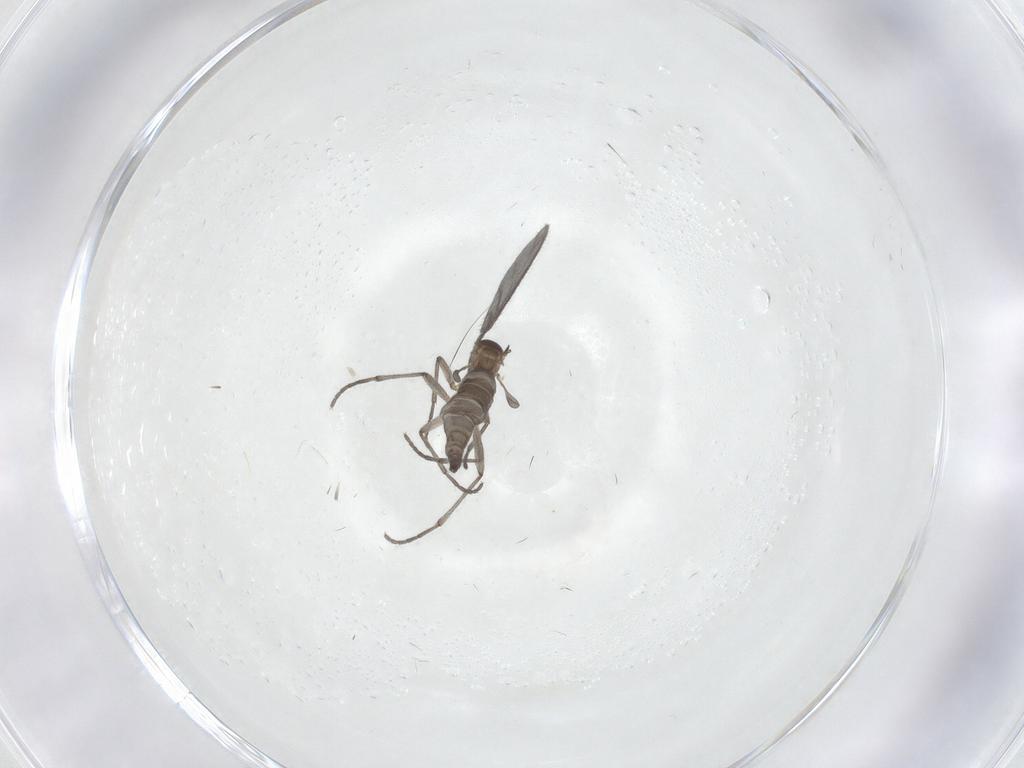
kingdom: Animalia
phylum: Arthropoda
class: Insecta
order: Diptera
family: Sciaridae
